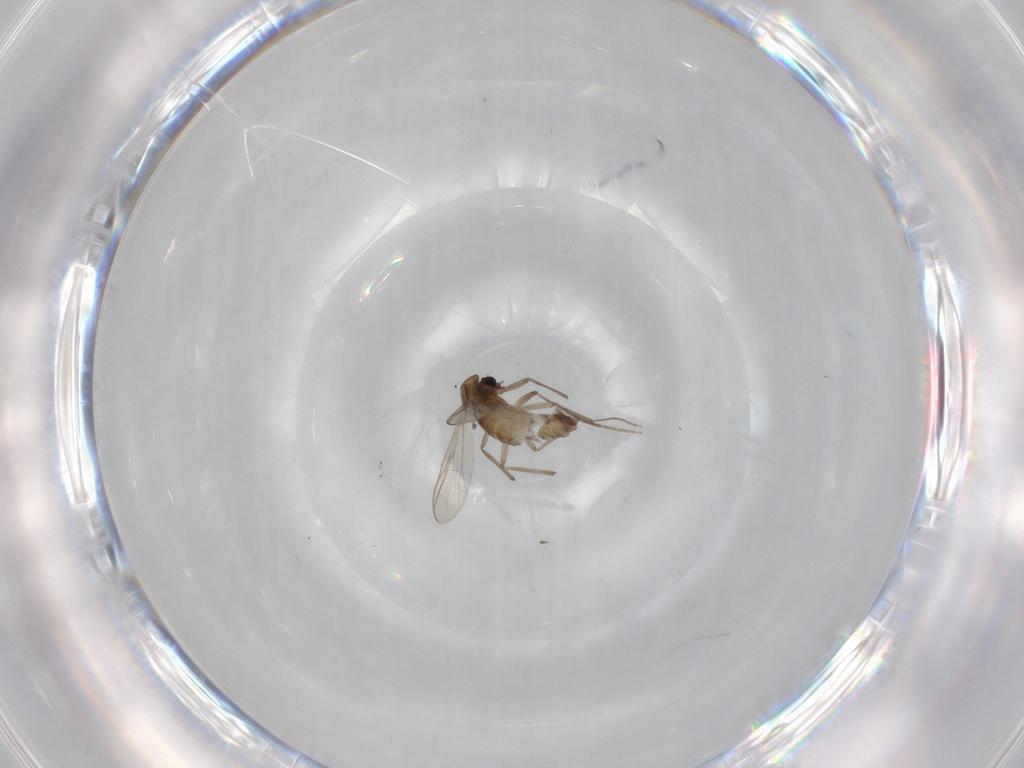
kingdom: Animalia
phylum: Arthropoda
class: Insecta
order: Diptera
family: Chironomidae
